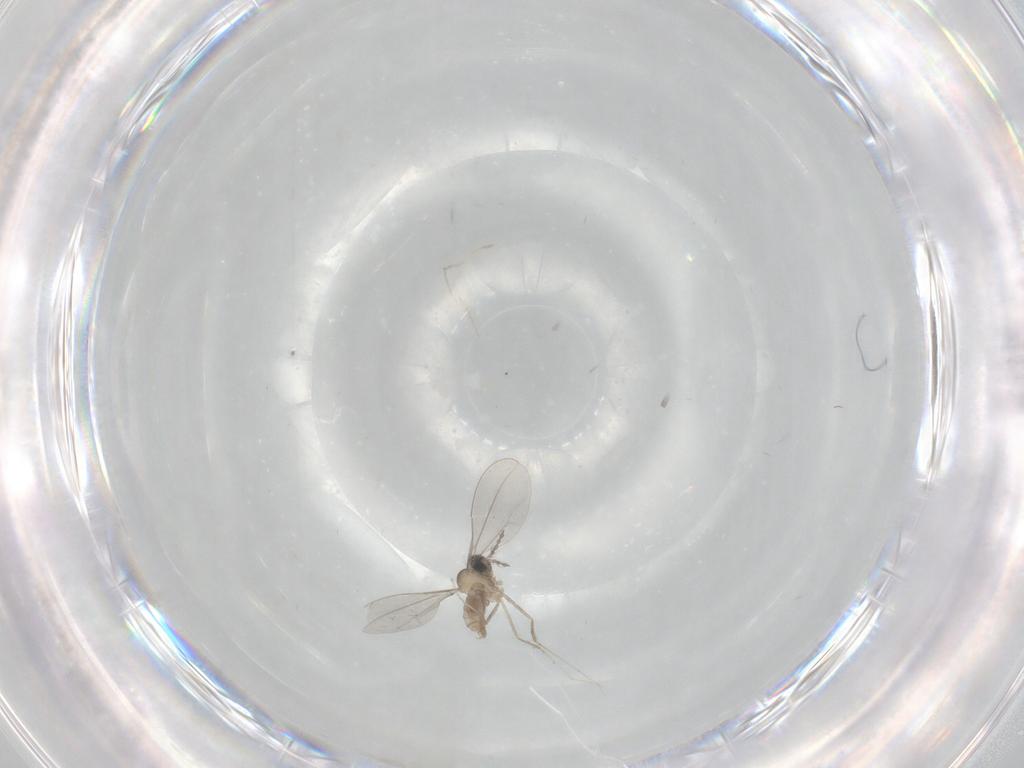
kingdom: Animalia
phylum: Arthropoda
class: Insecta
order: Diptera
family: Cecidomyiidae
